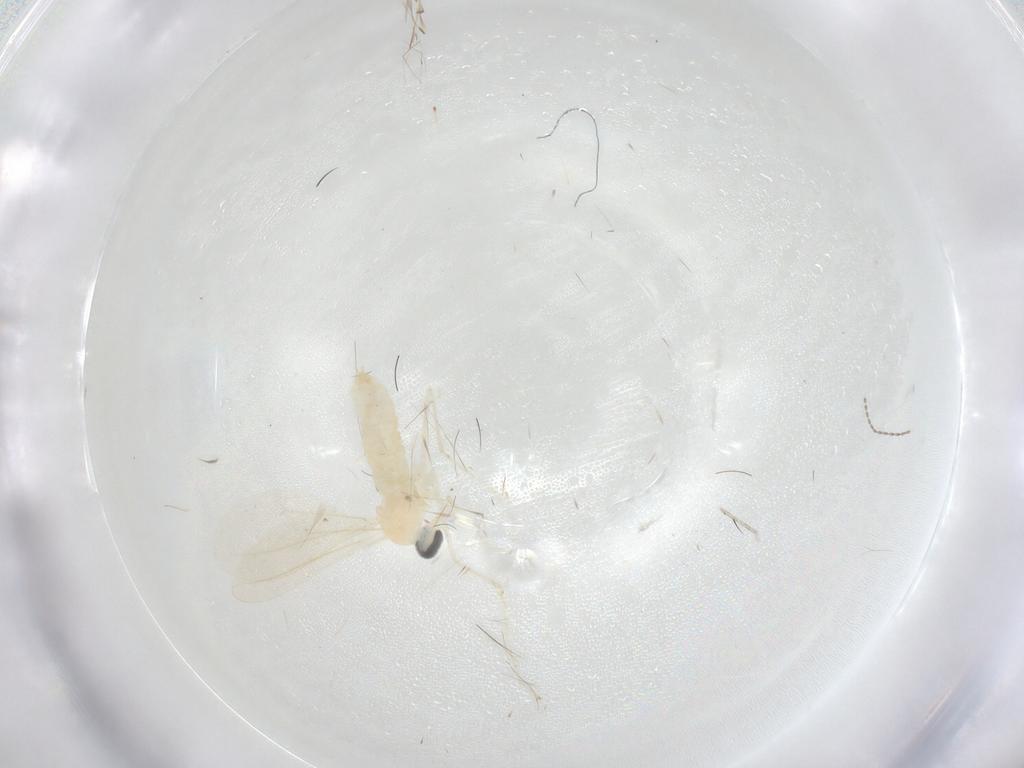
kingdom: Animalia
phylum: Arthropoda
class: Insecta
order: Diptera
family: Cecidomyiidae
